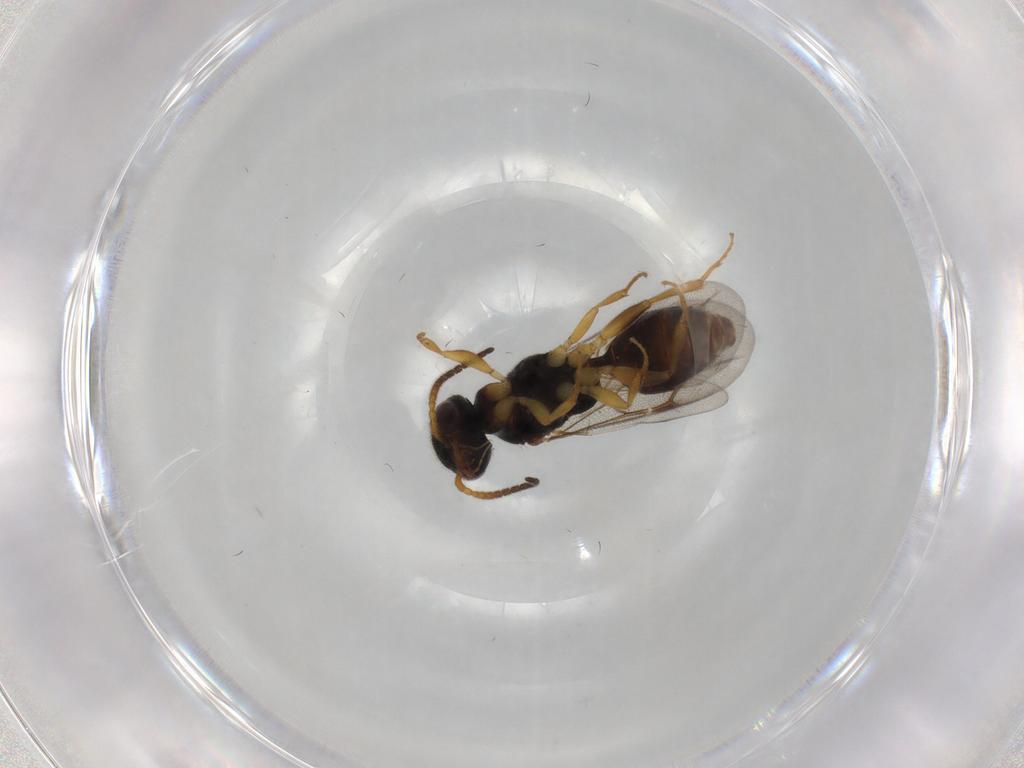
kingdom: Animalia
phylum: Arthropoda
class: Insecta
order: Hymenoptera
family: Bethylidae
